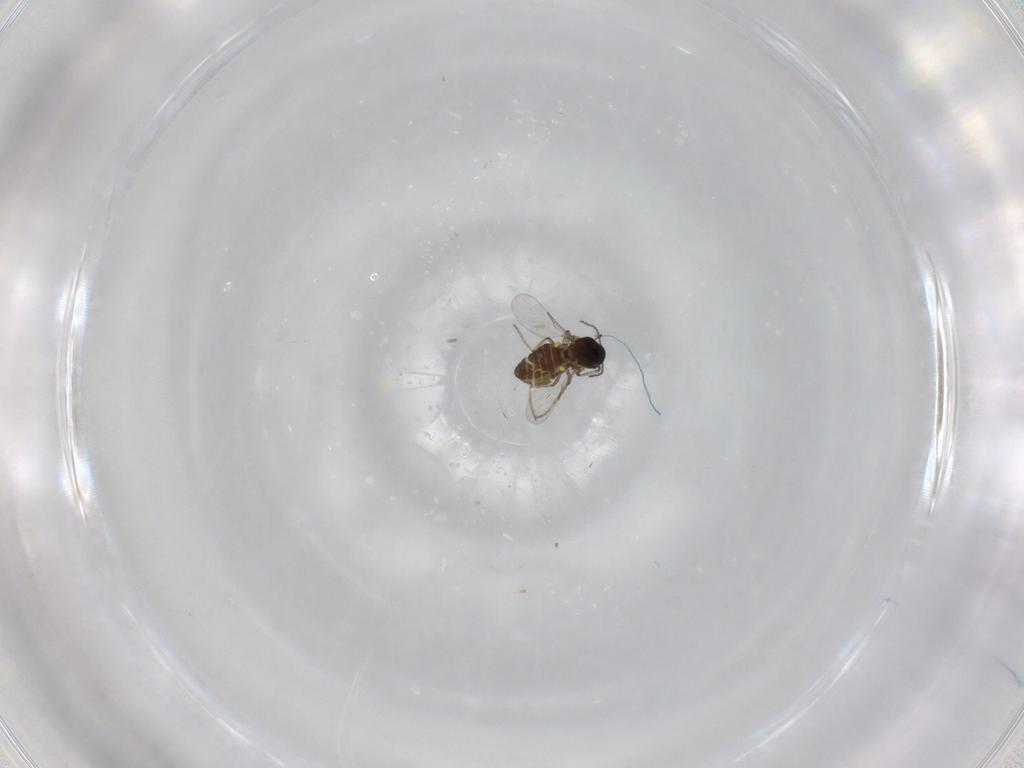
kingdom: Animalia
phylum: Arthropoda
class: Insecta
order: Diptera
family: Ceratopogonidae
